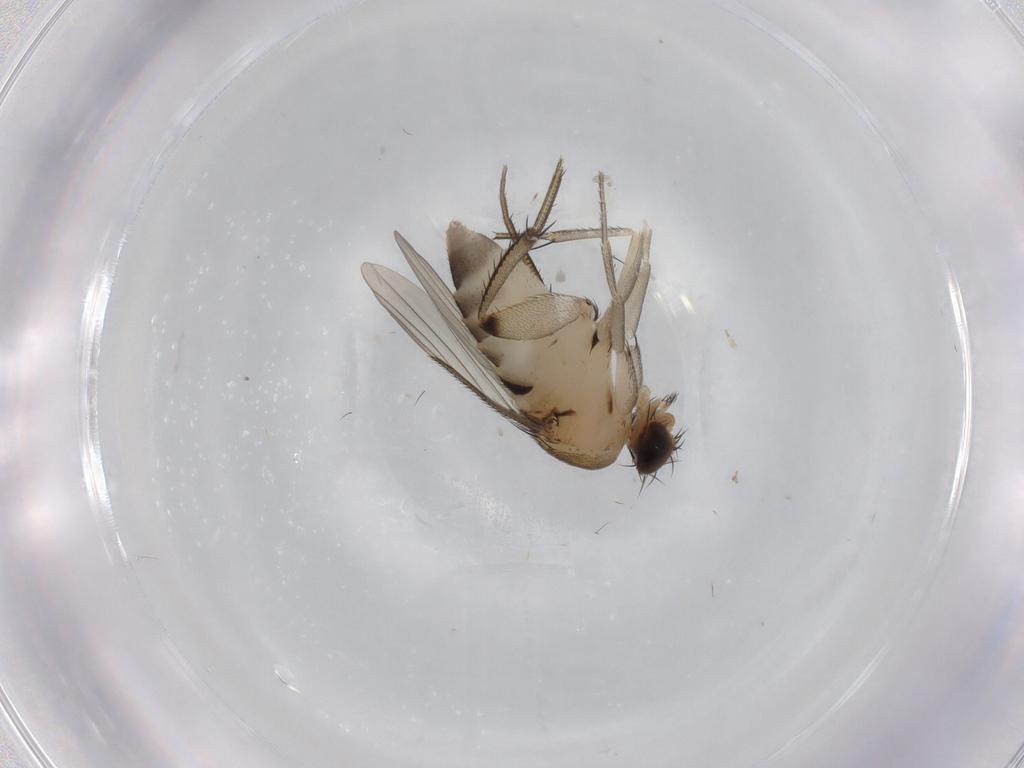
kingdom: Animalia
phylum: Arthropoda
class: Insecta
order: Diptera
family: Phoridae
